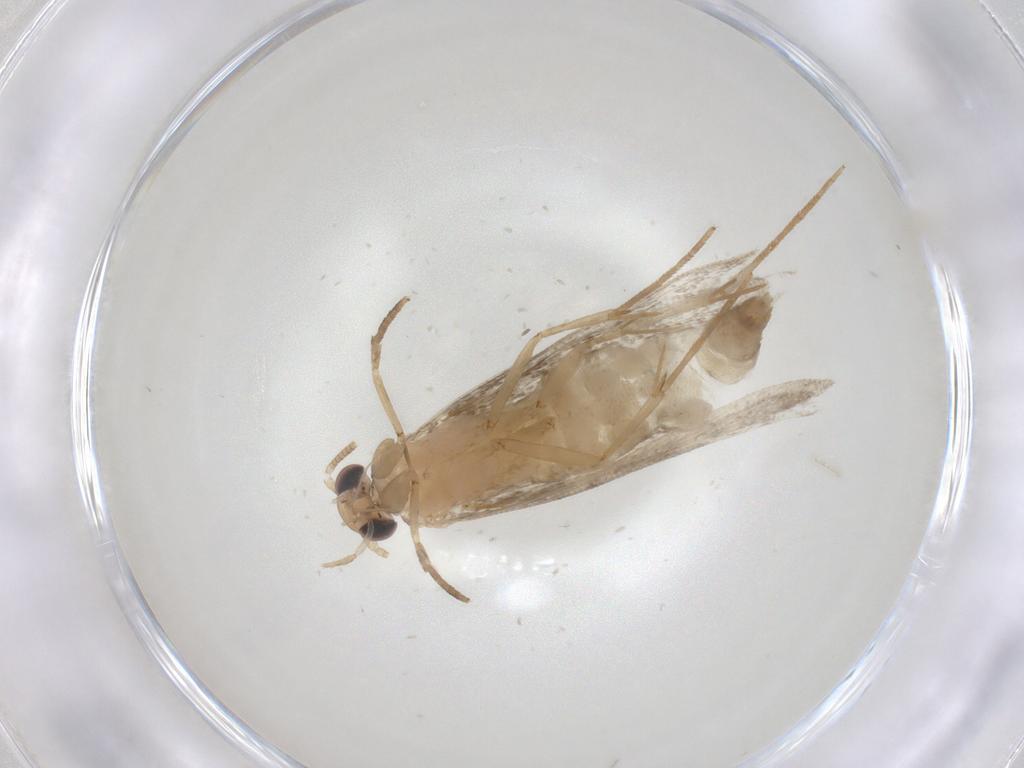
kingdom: Animalia
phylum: Arthropoda
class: Insecta
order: Lepidoptera
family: Tineidae
